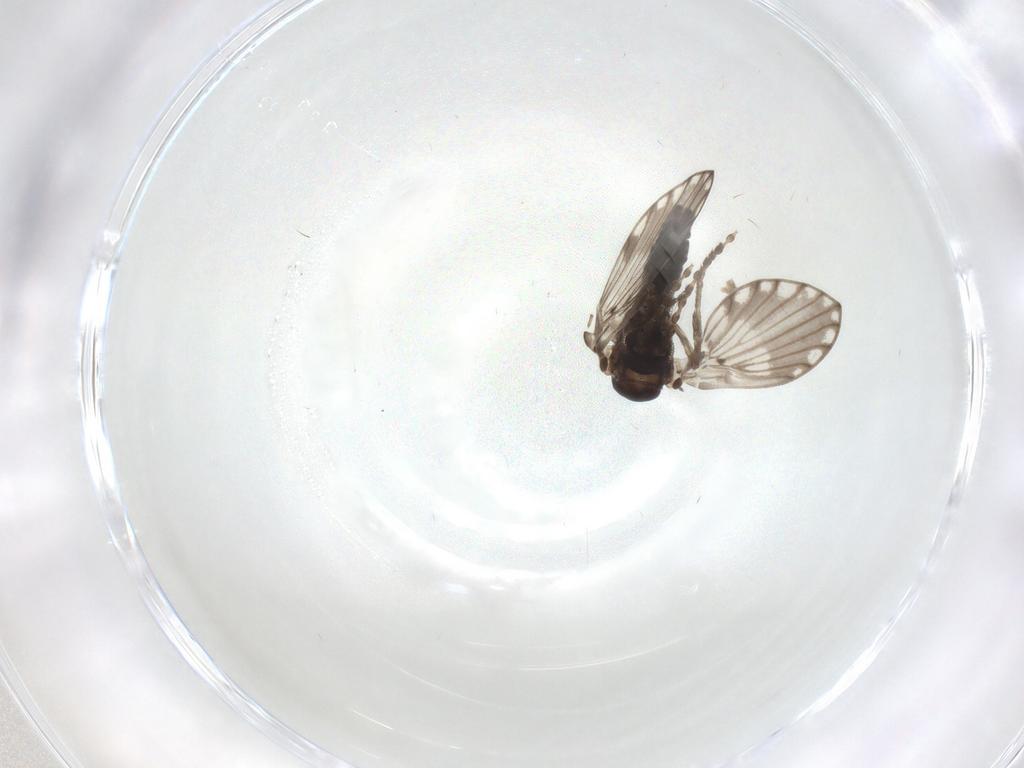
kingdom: Animalia
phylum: Arthropoda
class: Insecta
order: Diptera
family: Psychodidae
